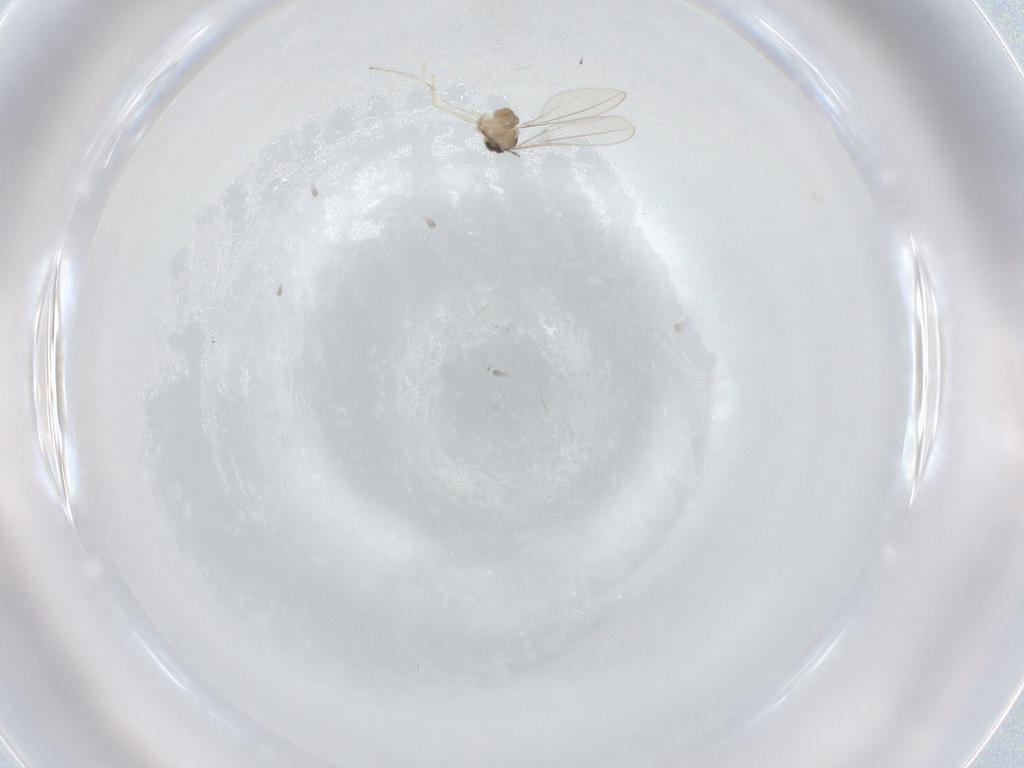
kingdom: Animalia
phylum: Arthropoda
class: Insecta
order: Diptera
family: Cecidomyiidae
